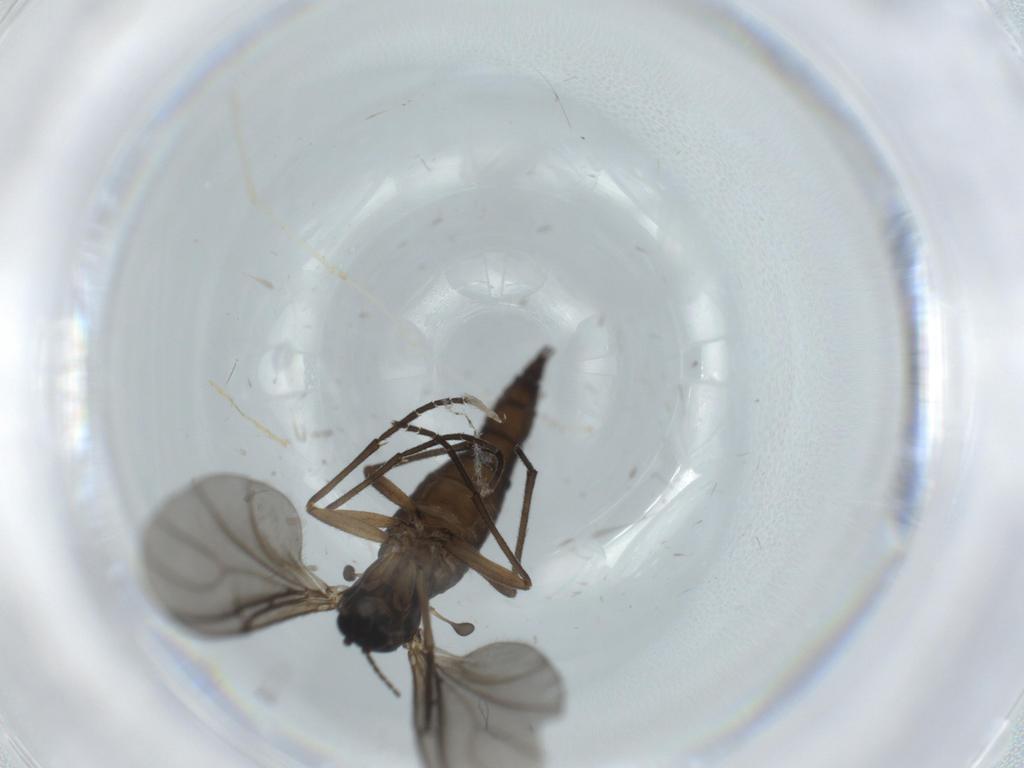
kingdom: Animalia
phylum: Arthropoda
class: Insecta
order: Diptera
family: Sciaridae
